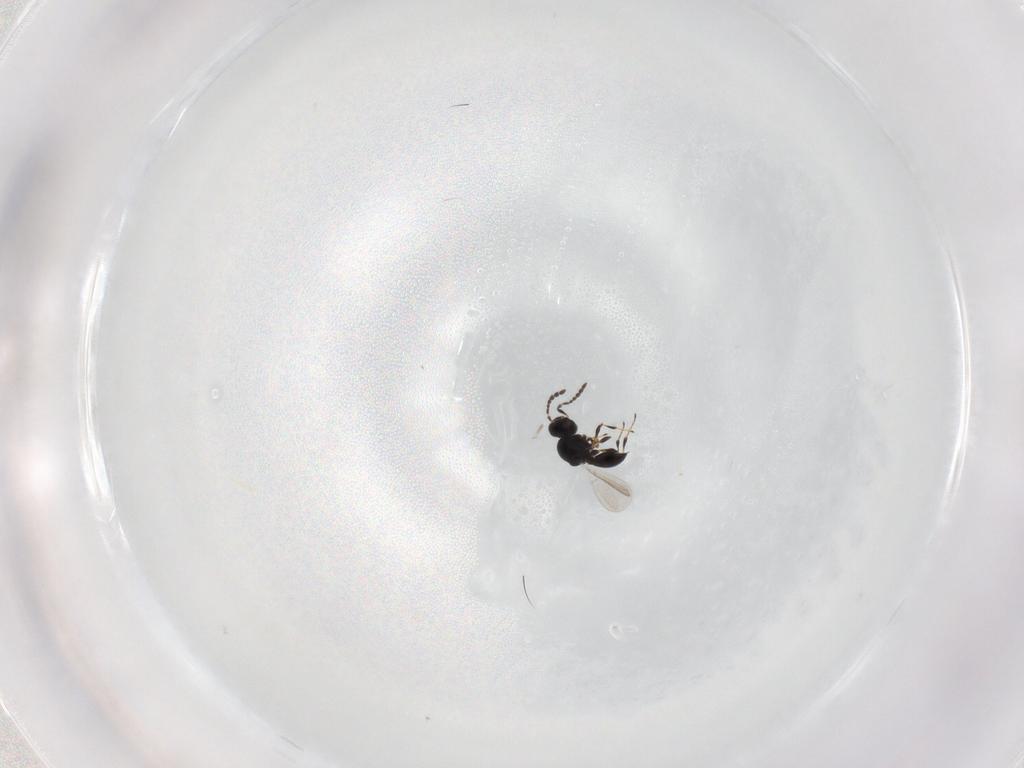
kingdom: Animalia
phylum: Arthropoda
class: Insecta
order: Hymenoptera
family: Platygastridae
